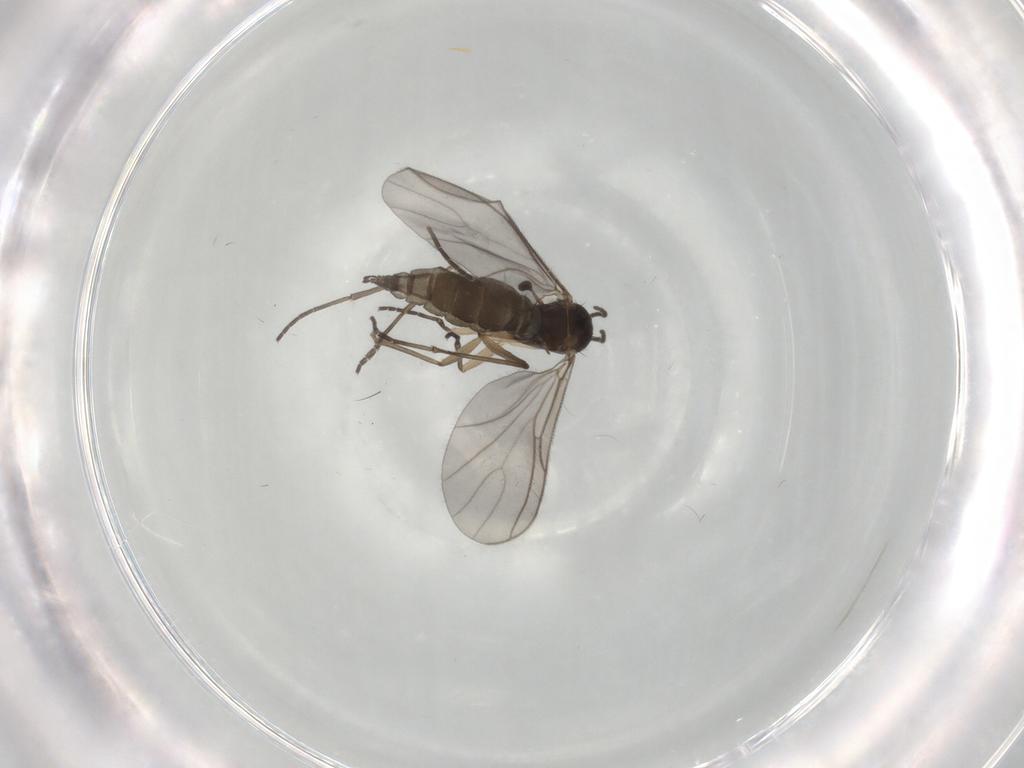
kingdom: Animalia
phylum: Arthropoda
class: Insecta
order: Diptera
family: Sciaridae
